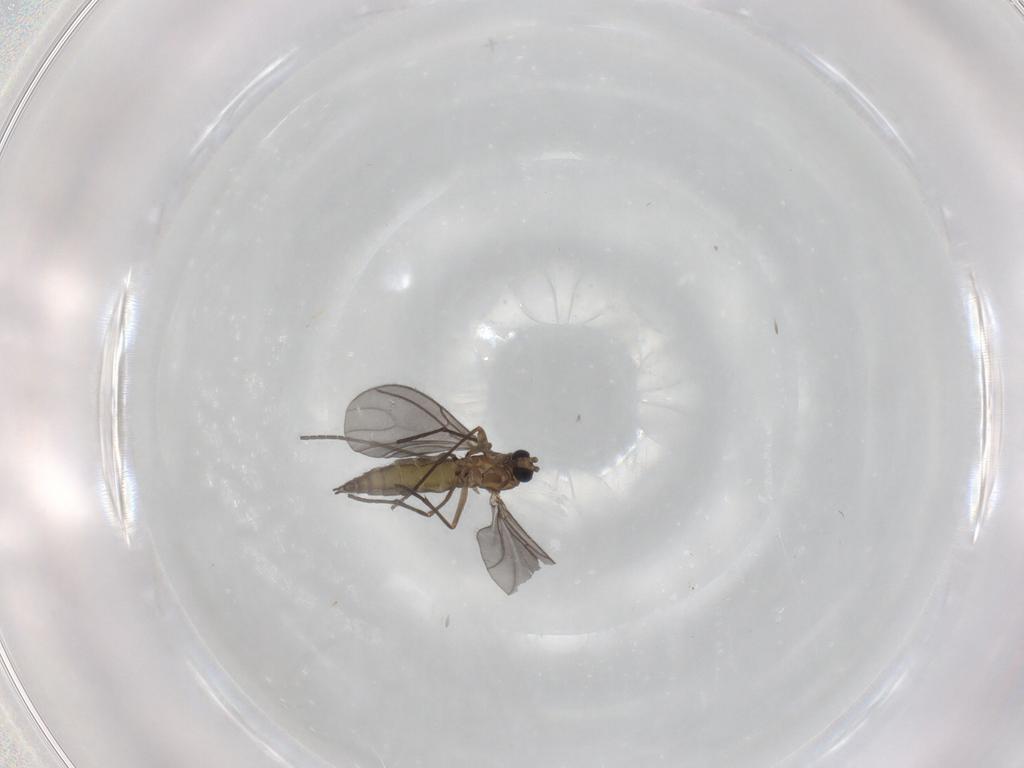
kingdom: Animalia
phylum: Arthropoda
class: Insecta
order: Diptera
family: Sciaridae
